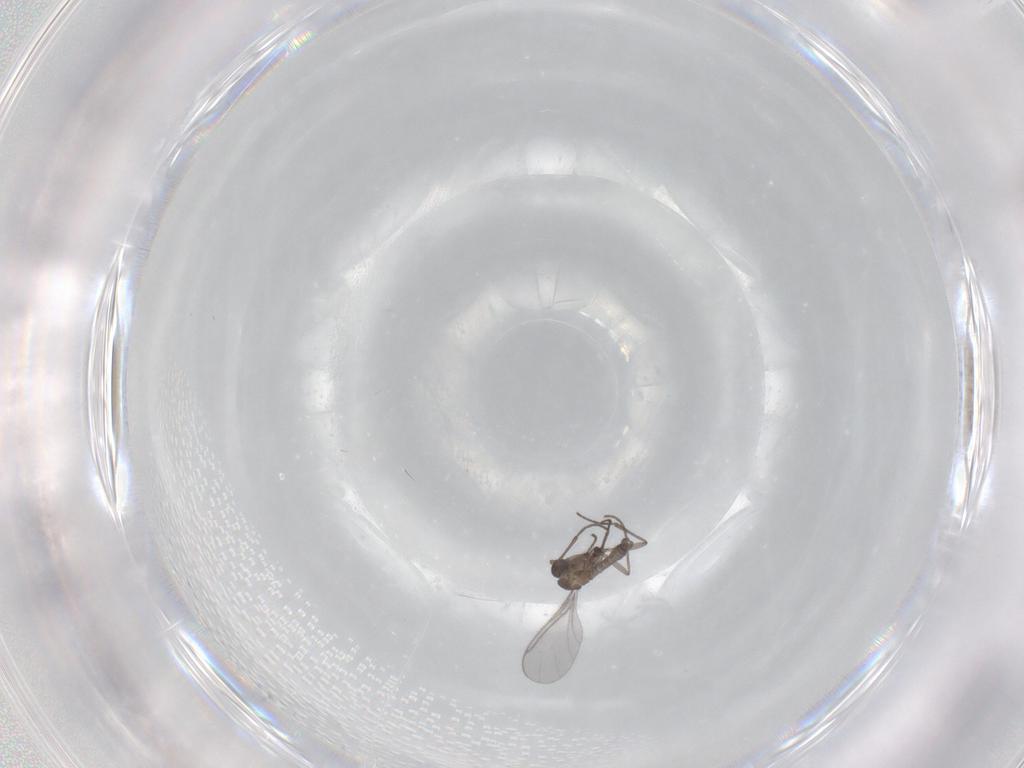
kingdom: Animalia
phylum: Arthropoda
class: Insecta
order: Diptera
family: Sciaridae
